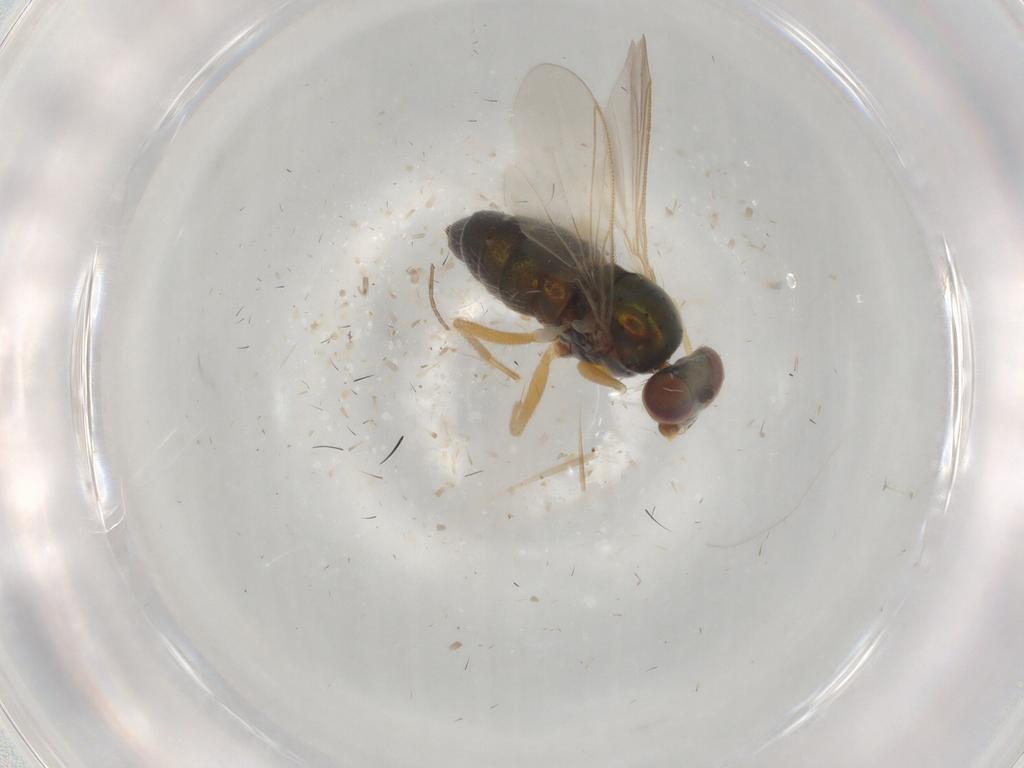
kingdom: Animalia
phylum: Arthropoda
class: Insecta
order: Diptera
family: Dolichopodidae
